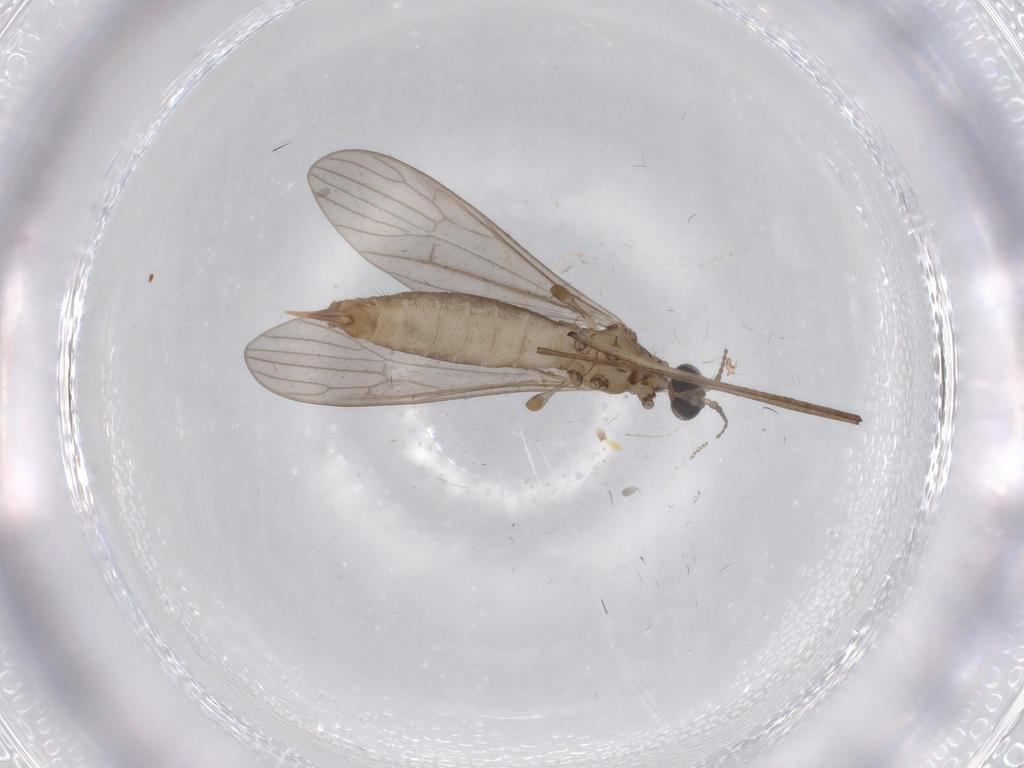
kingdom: Animalia
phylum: Arthropoda
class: Insecta
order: Diptera
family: Limoniidae
